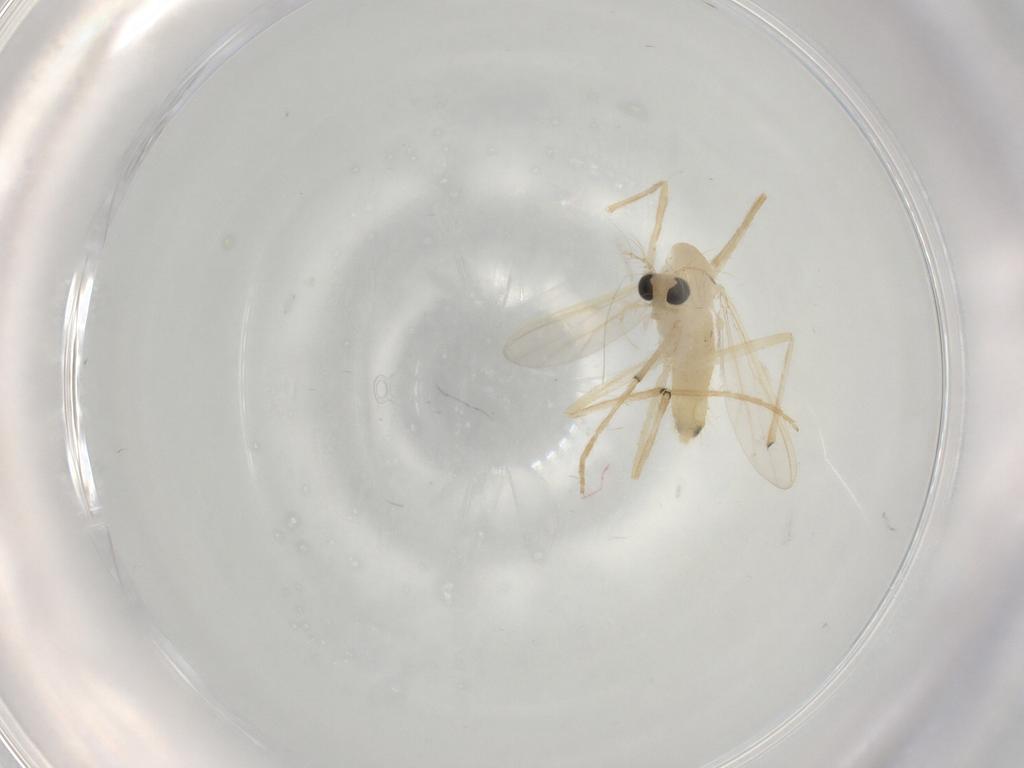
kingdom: Animalia
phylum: Arthropoda
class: Insecta
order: Diptera
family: Chironomidae
